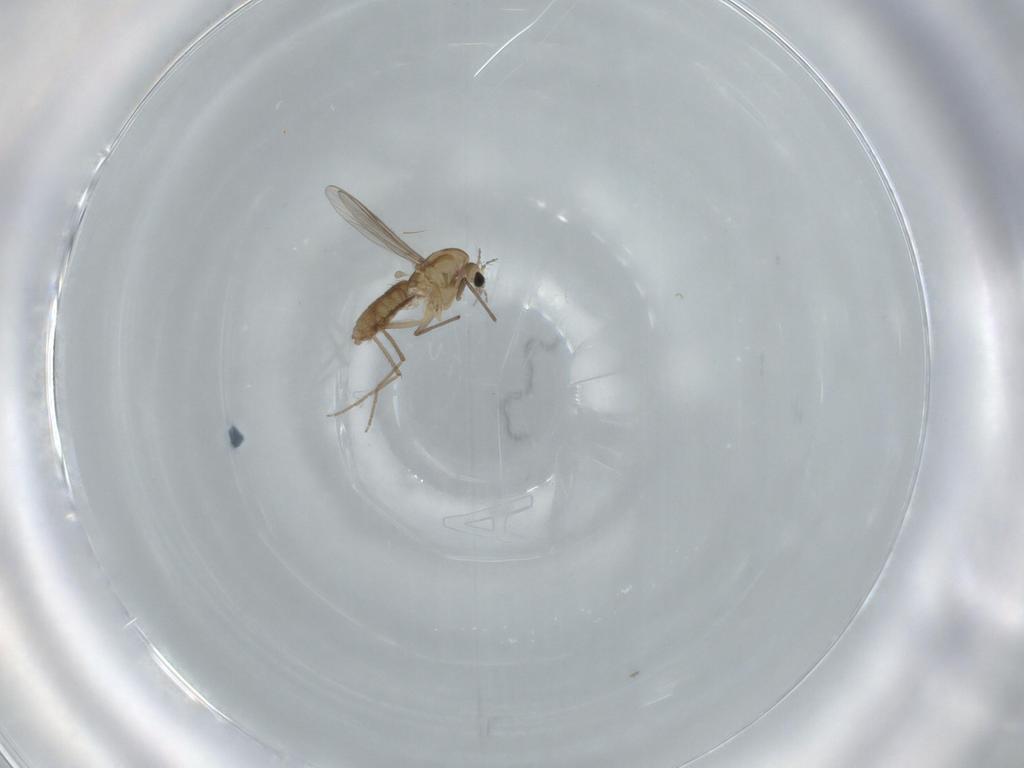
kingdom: Animalia
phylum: Arthropoda
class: Insecta
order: Diptera
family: Chironomidae
